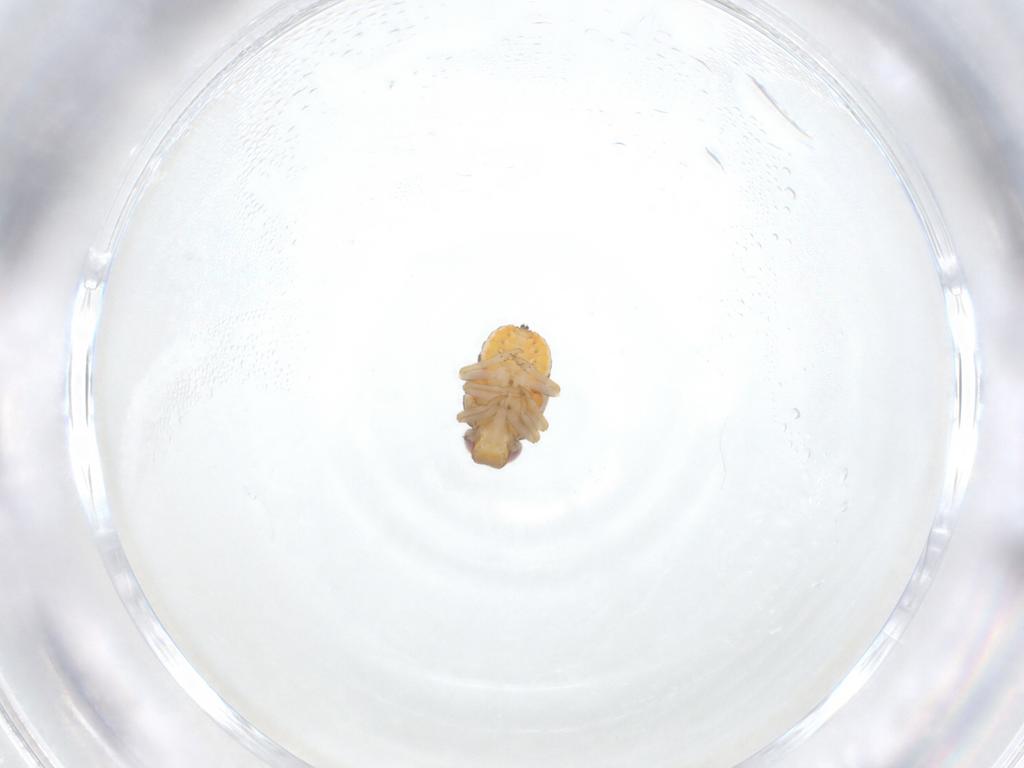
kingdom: Animalia
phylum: Arthropoda
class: Insecta
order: Hemiptera
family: Issidae
